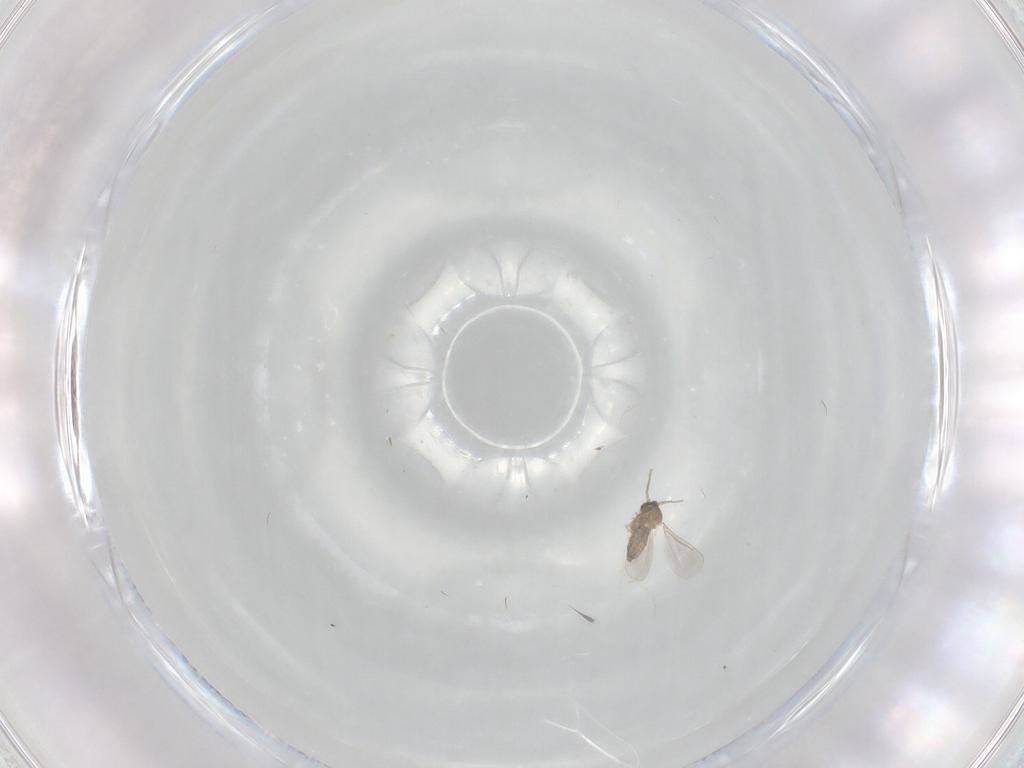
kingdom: Animalia
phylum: Arthropoda
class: Insecta
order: Diptera
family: Cecidomyiidae
